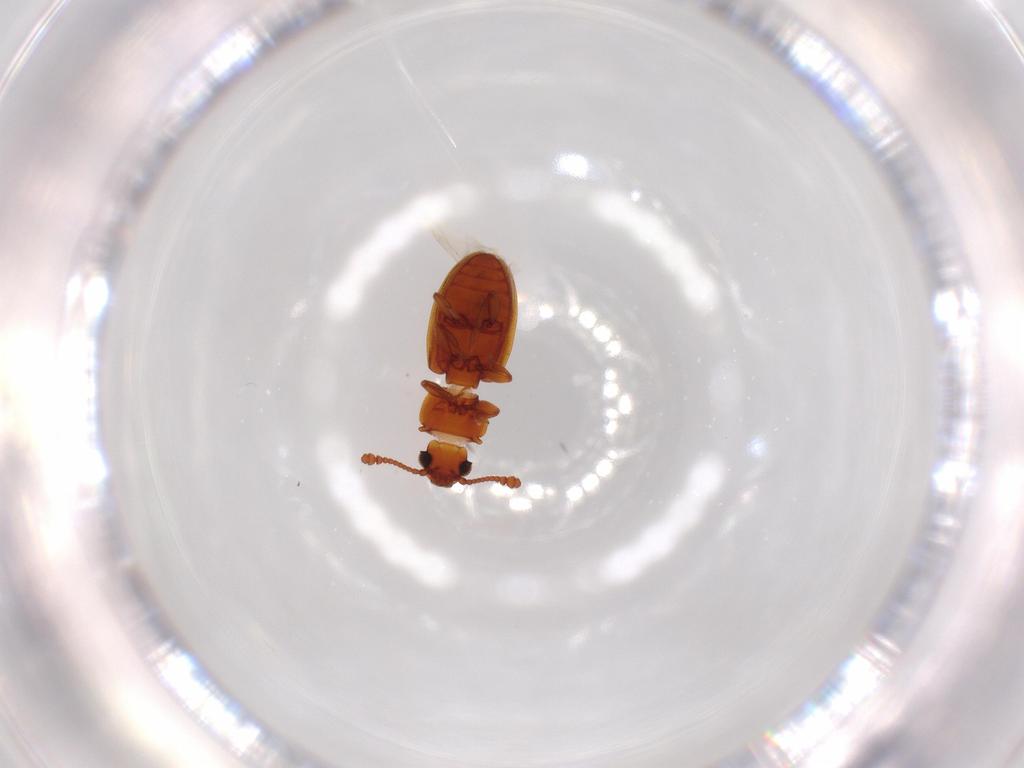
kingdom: Animalia
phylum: Arthropoda
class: Insecta
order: Coleoptera
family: Silvanidae
